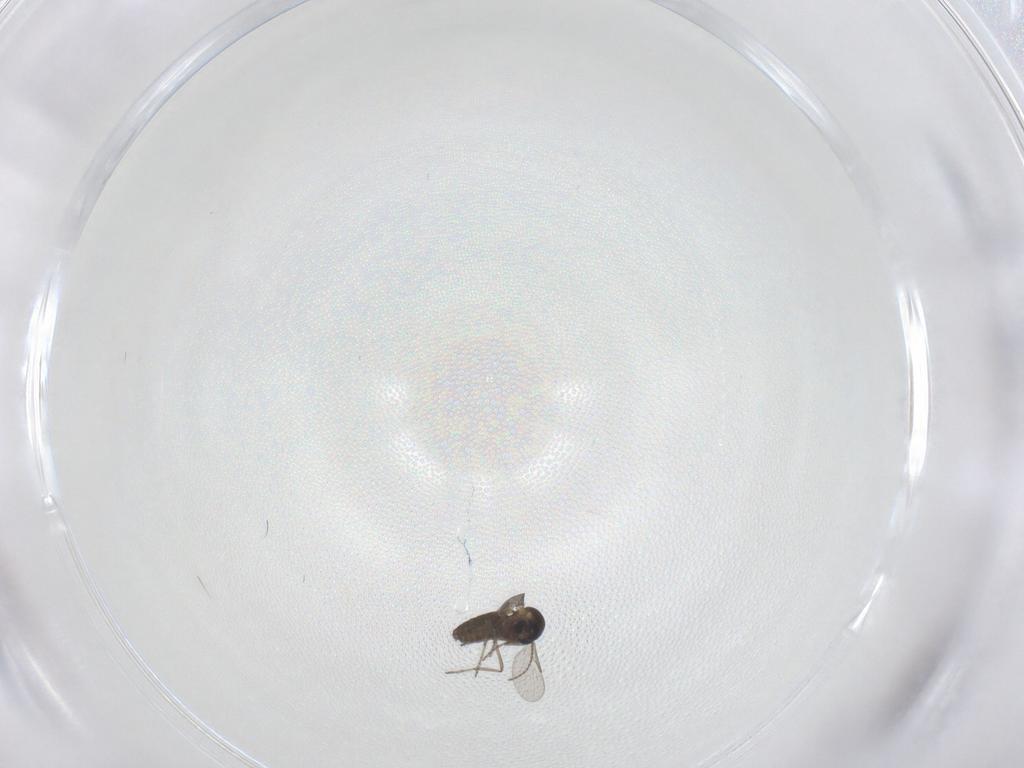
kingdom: Animalia
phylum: Arthropoda
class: Insecta
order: Diptera
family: Ceratopogonidae
